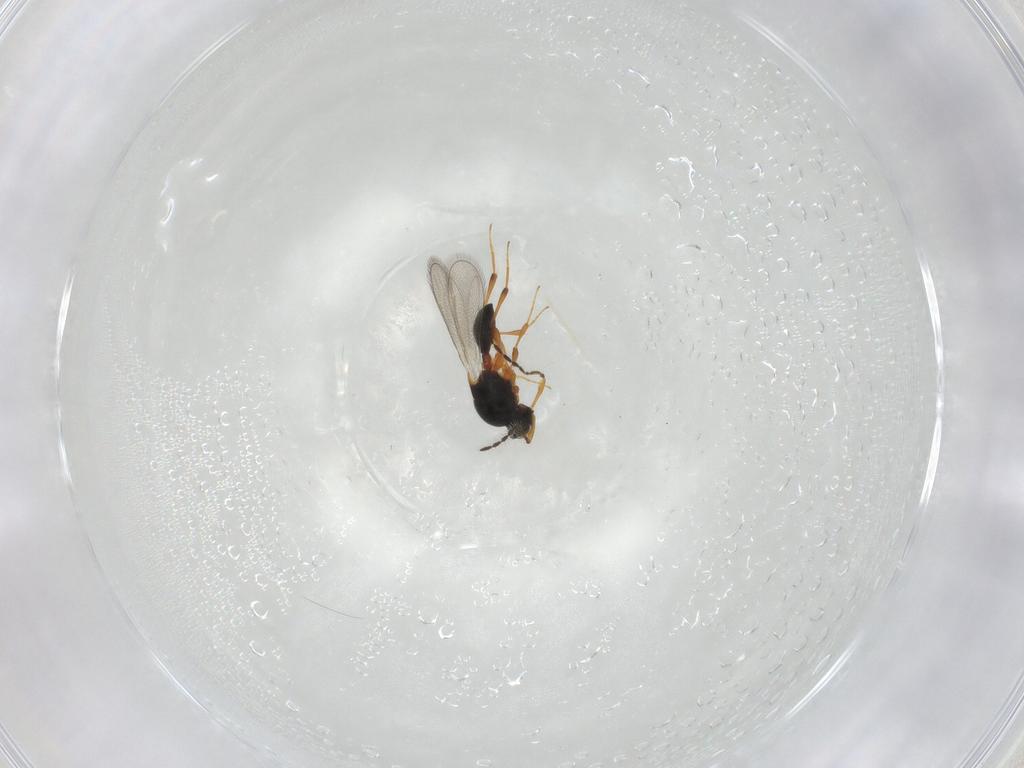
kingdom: Animalia
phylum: Arthropoda
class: Insecta
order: Hymenoptera
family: Platygastridae
